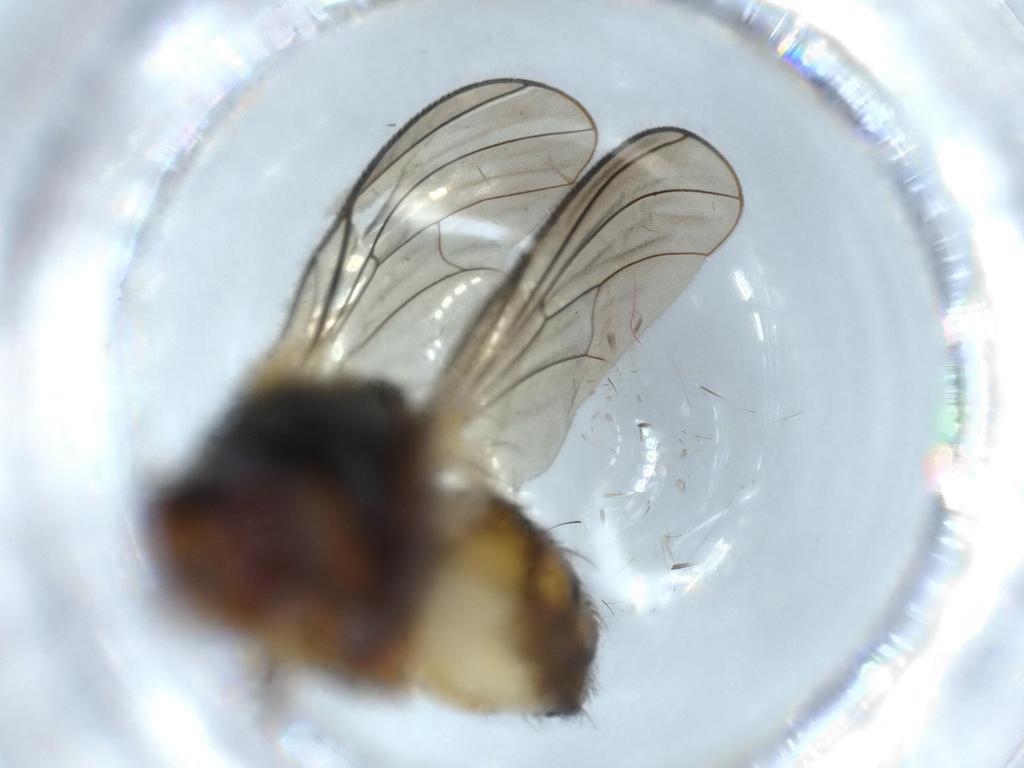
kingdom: Animalia
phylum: Arthropoda
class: Insecta
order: Diptera
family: Anthomyiidae
